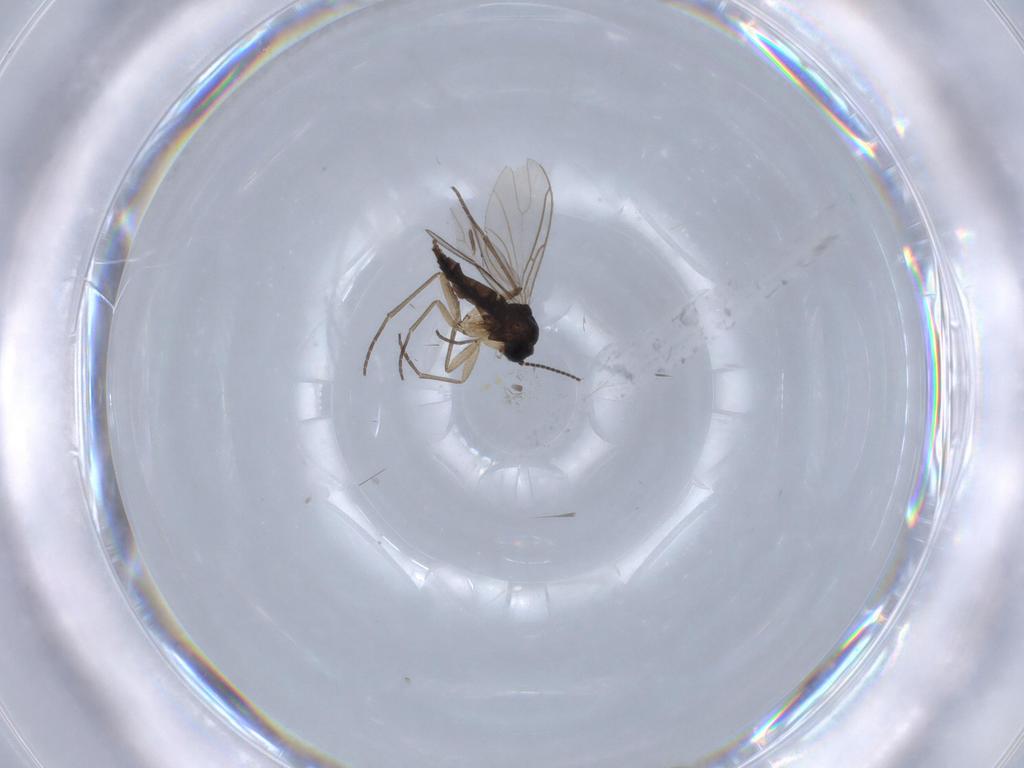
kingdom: Animalia
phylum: Arthropoda
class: Insecta
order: Diptera
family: Sciaridae
